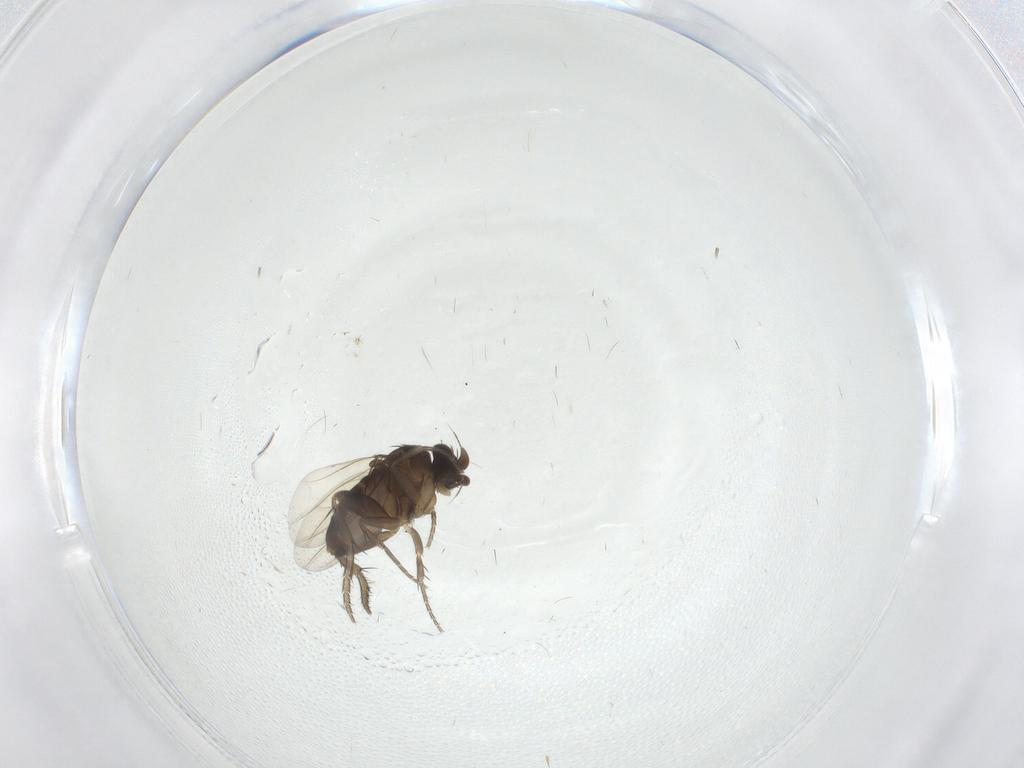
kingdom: Animalia
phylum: Arthropoda
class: Insecta
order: Diptera
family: Phoridae
